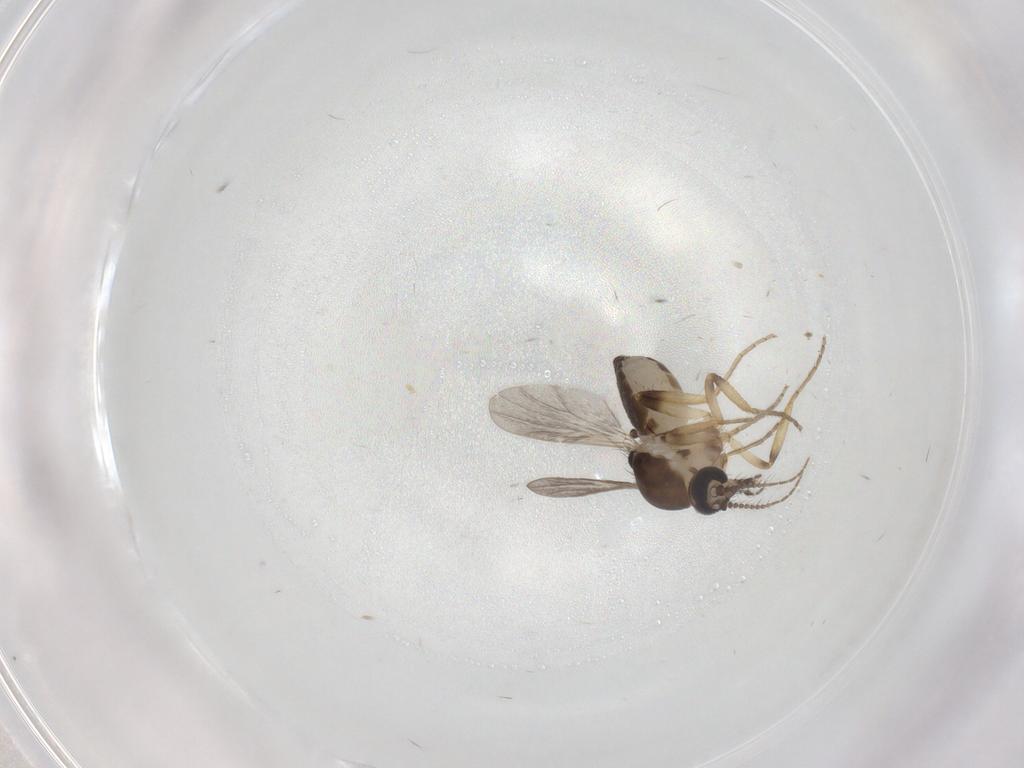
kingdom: Animalia
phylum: Arthropoda
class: Insecta
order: Diptera
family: Ceratopogonidae
